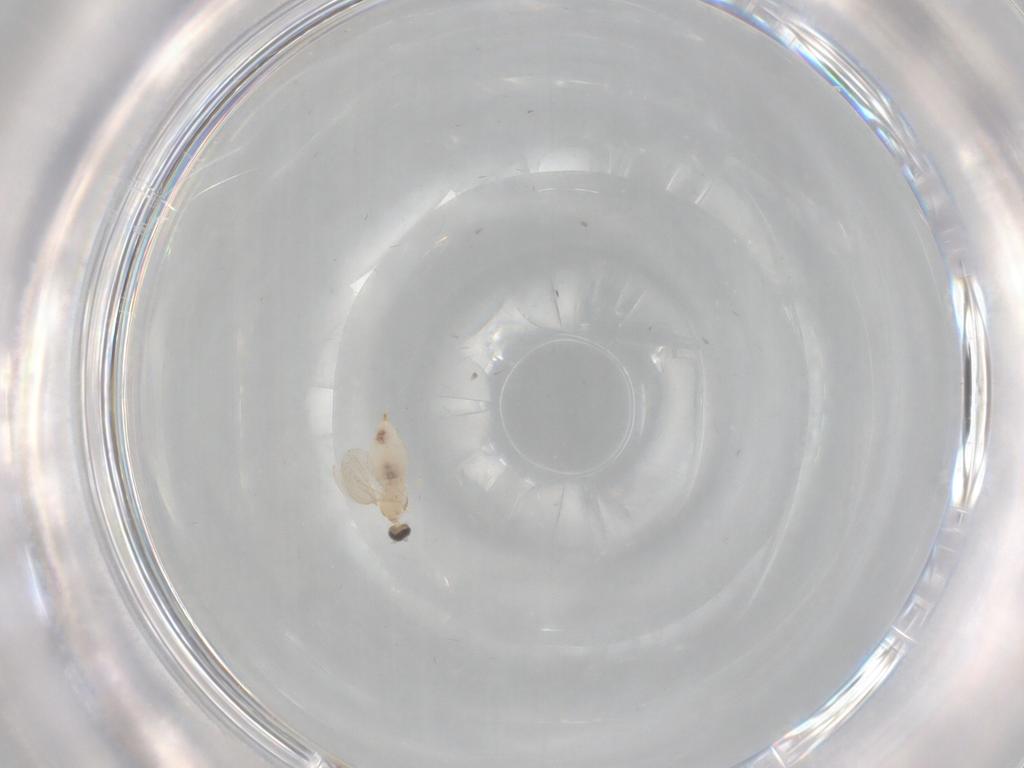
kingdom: Animalia
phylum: Arthropoda
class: Insecta
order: Diptera
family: Cecidomyiidae
